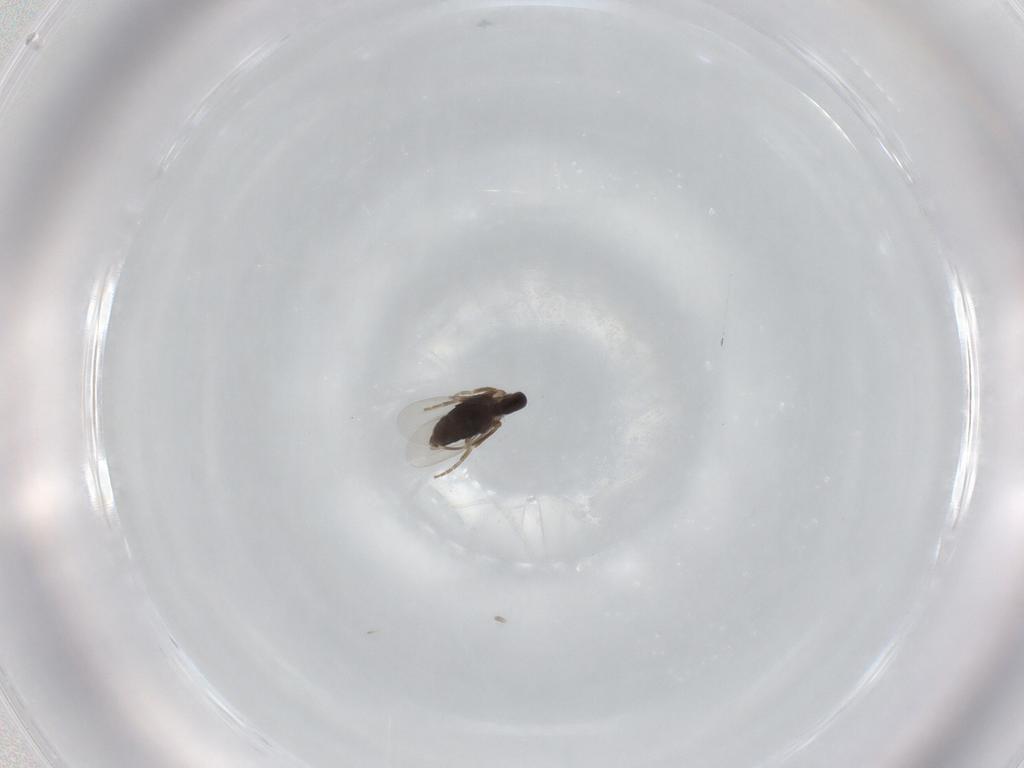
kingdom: Animalia
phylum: Arthropoda
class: Insecta
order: Diptera
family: Phoridae
